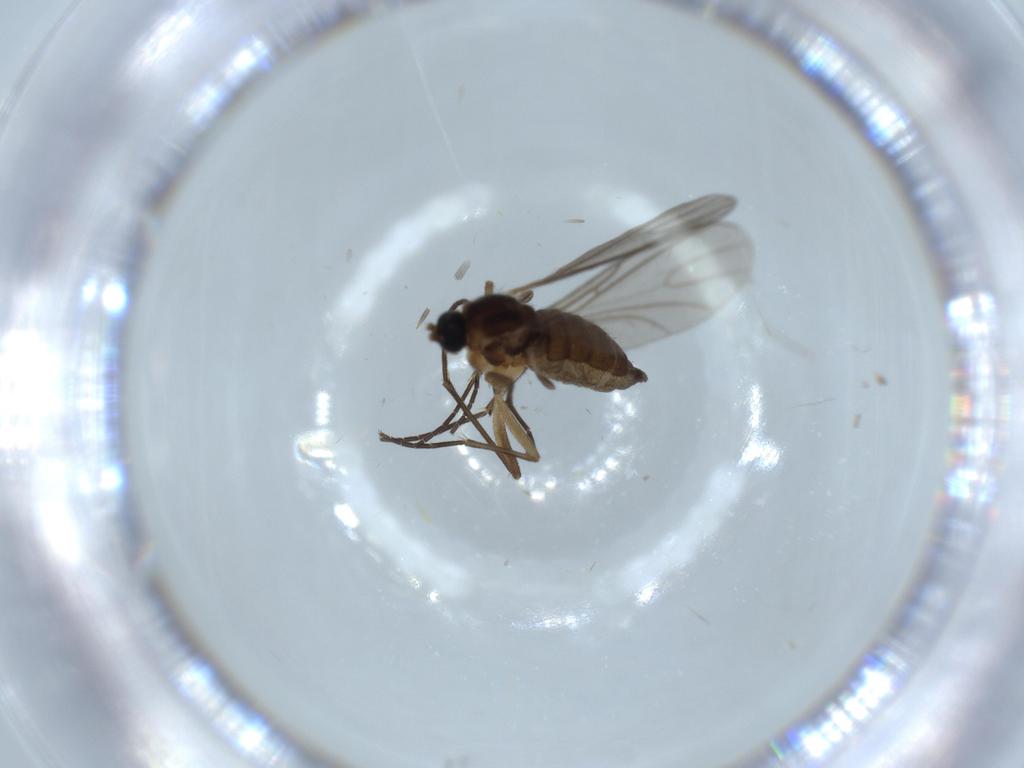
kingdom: Animalia
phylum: Arthropoda
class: Insecta
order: Diptera
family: Sciaridae
